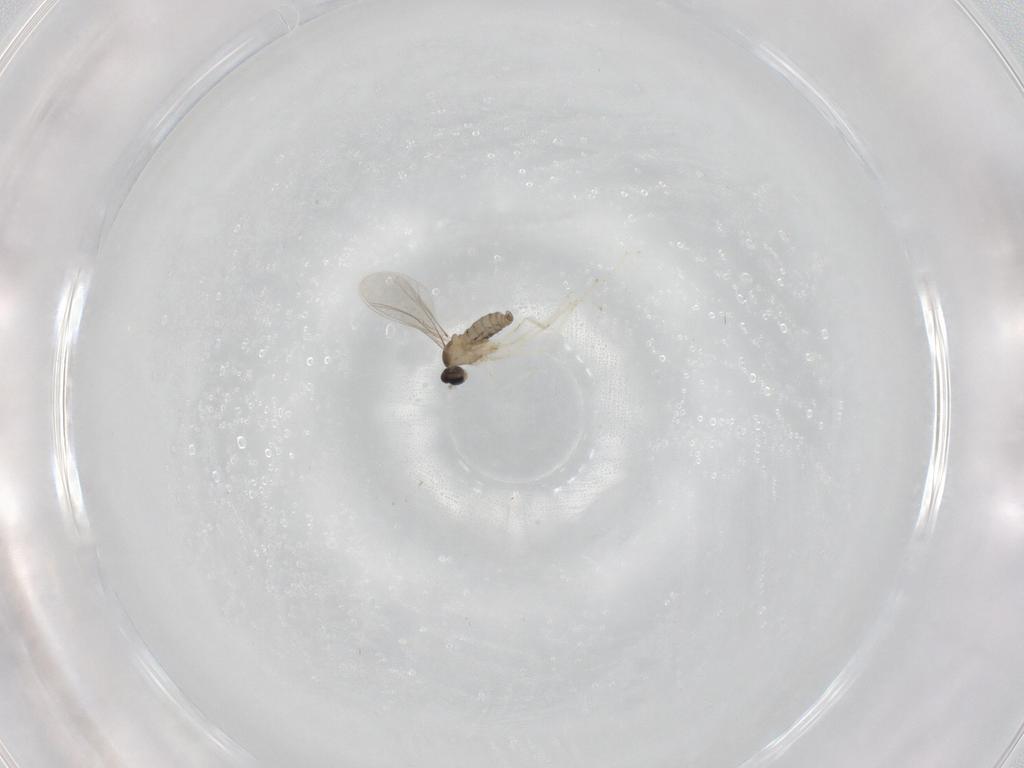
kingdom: Animalia
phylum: Arthropoda
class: Insecta
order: Diptera
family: Cecidomyiidae
